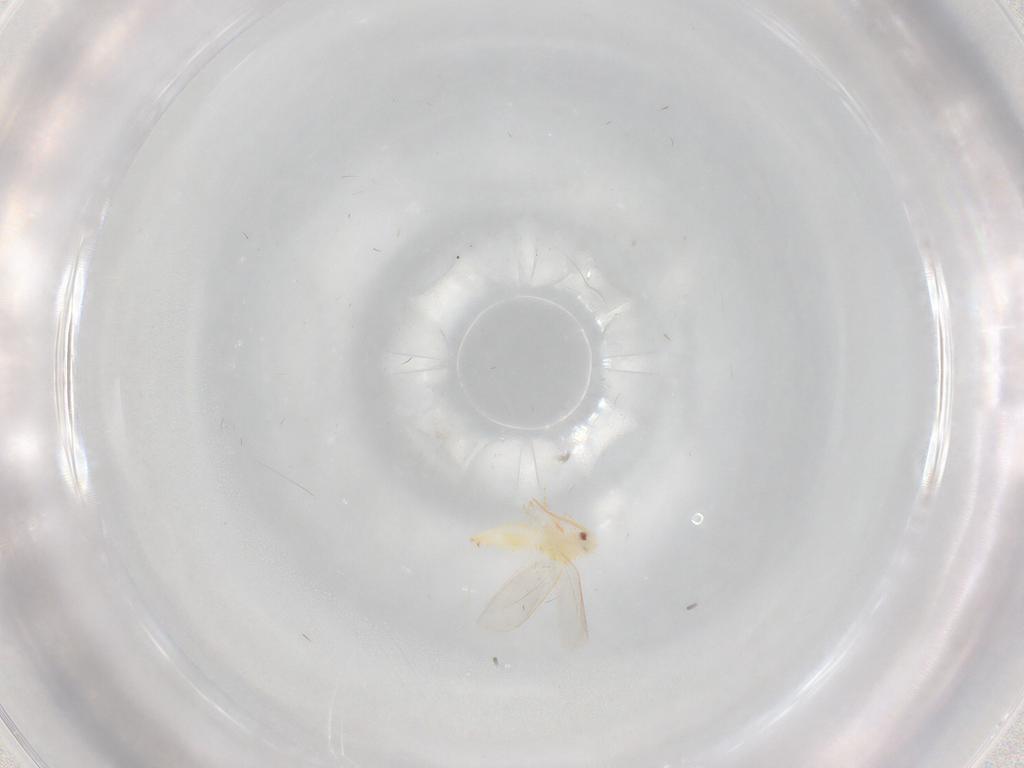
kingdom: Animalia
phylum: Arthropoda
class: Insecta
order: Hemiptera
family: Aleyrodidae
